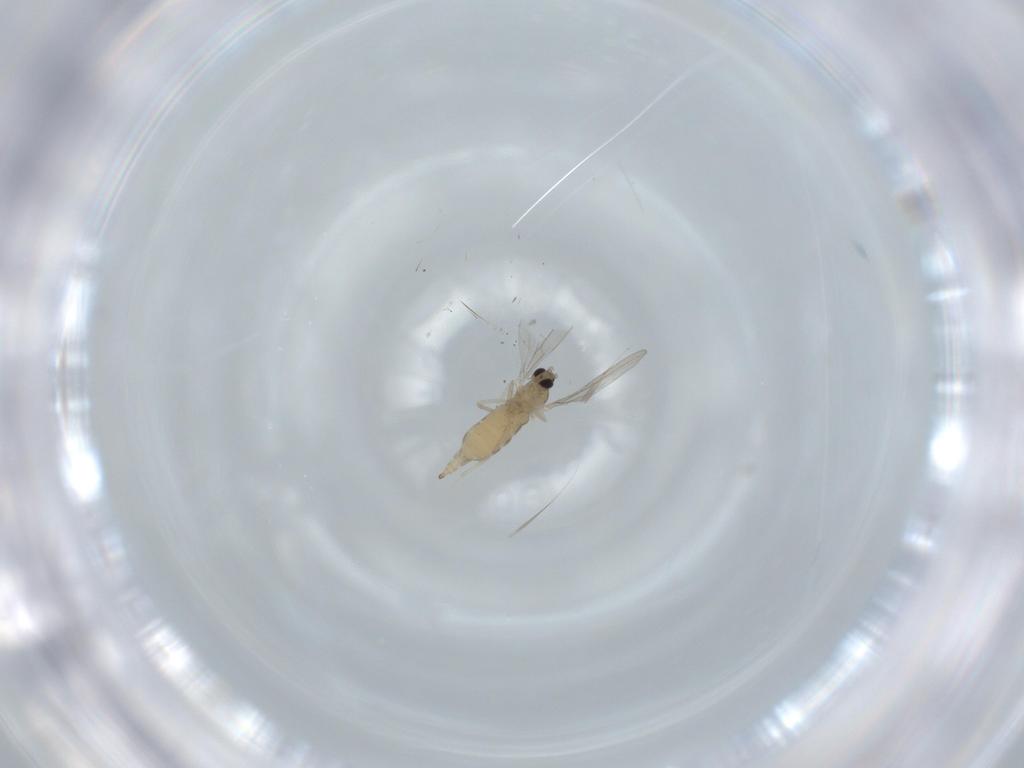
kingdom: Animalia
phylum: Arthropoda
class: Insecta
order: Diptera
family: Cecidomyiidae
